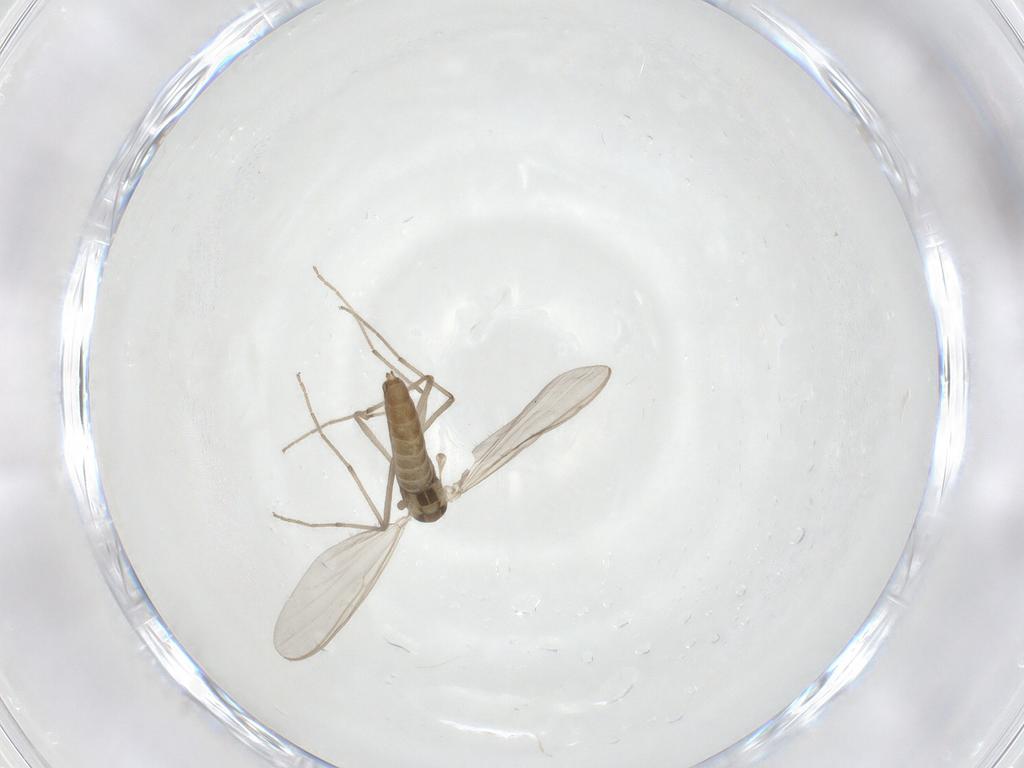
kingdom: Animalia
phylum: Arthropoda
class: Insecta
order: Diptera
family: Chironomidae
